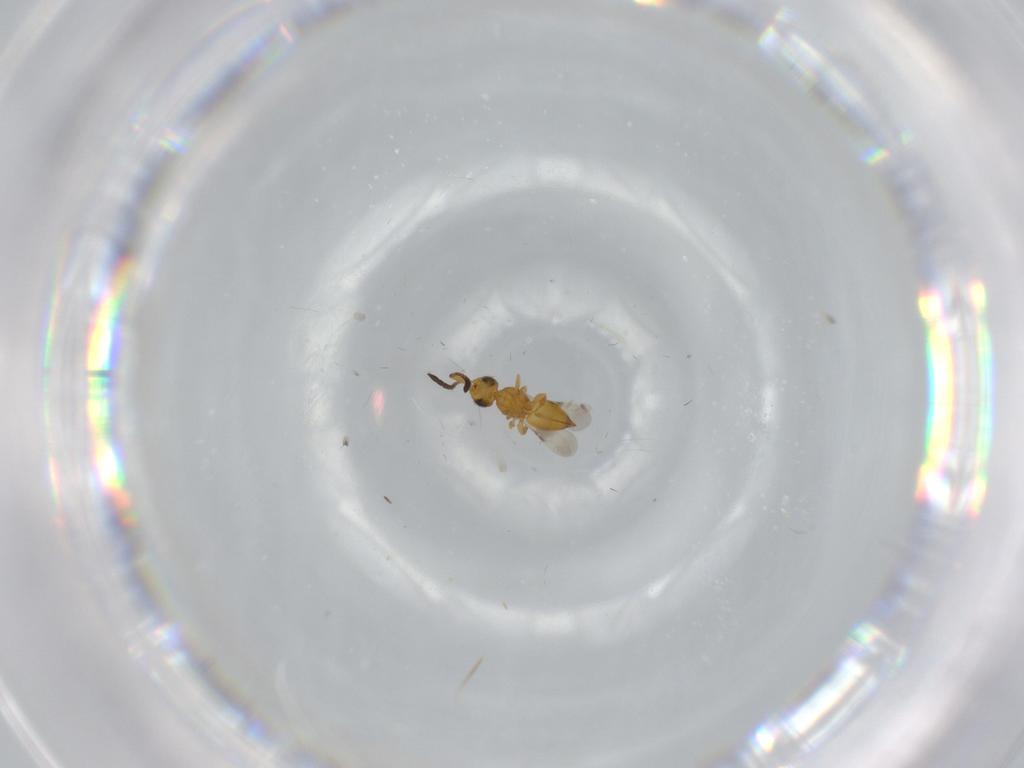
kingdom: Animalia
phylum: Arthropoda
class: Insecta
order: Hymenoptera
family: Ceraphronidae
